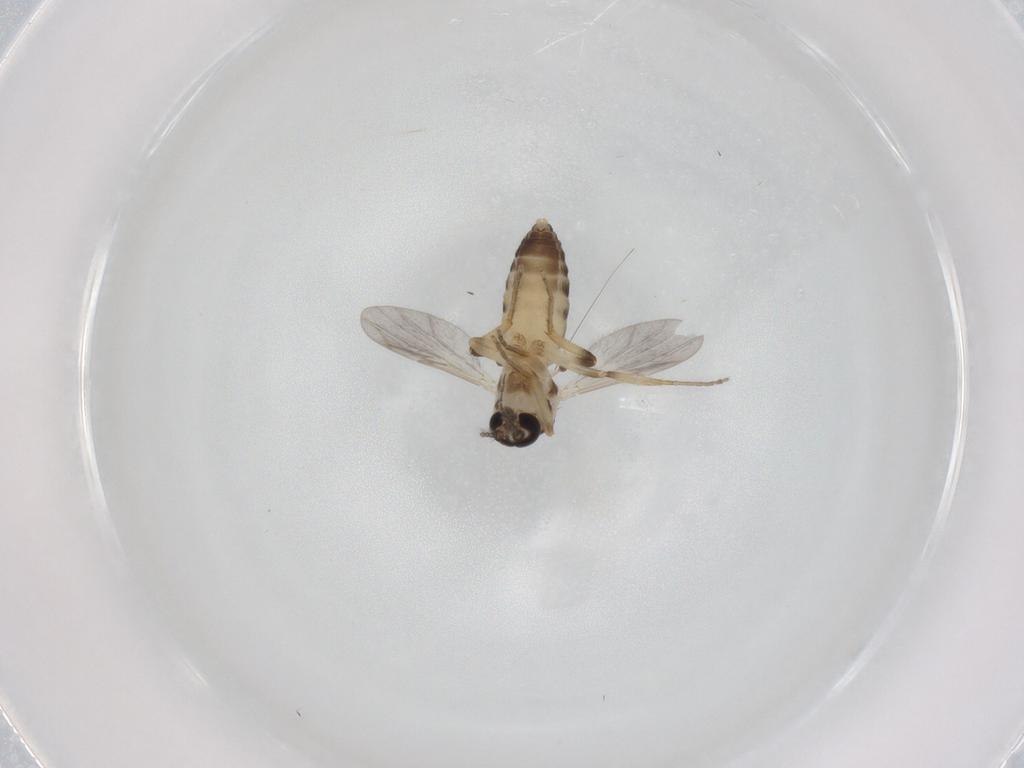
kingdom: Animalia
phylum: Arthropoda
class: Insecta
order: Diptera
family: Ceratopogonidae
